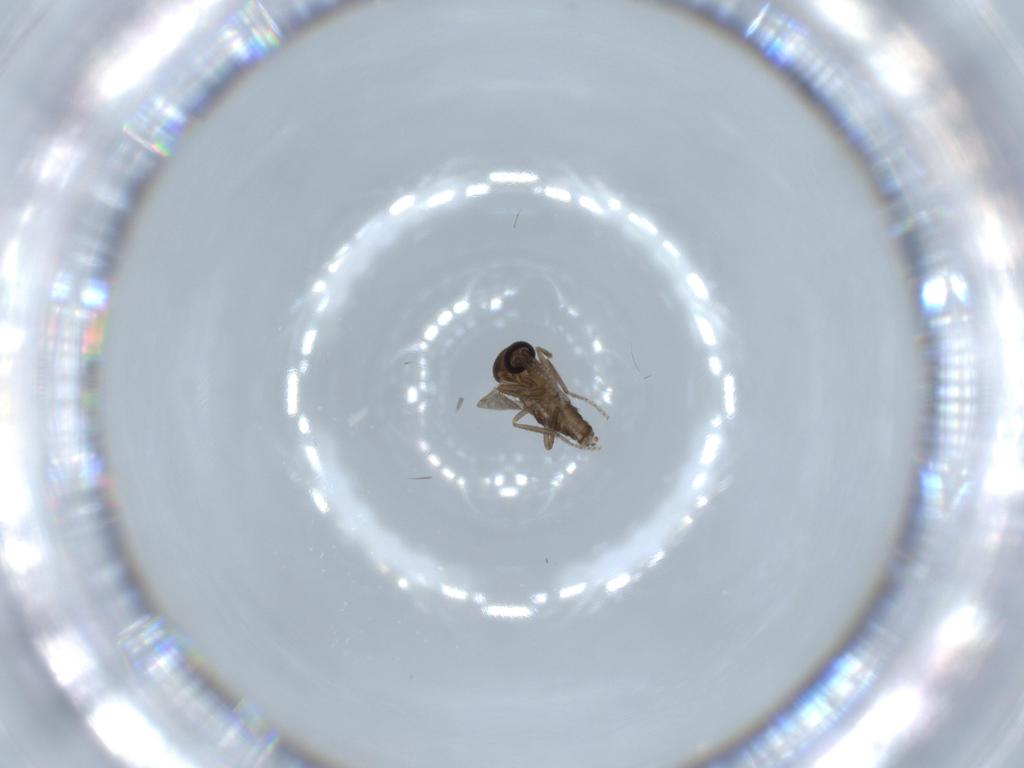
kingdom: Animalia
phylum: Arthropoda
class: Insecta
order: Diptera
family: Ceratopogonidae
